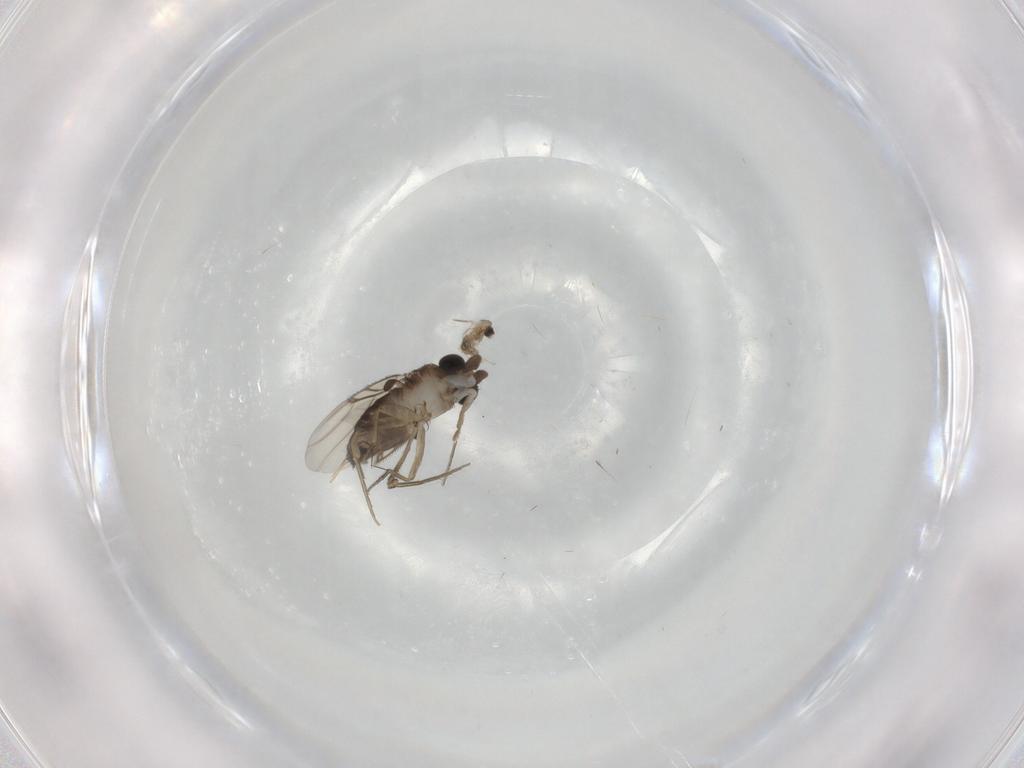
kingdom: Animalia
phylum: Arthropoda
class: Insecta
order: Diptera
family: Phoridae
